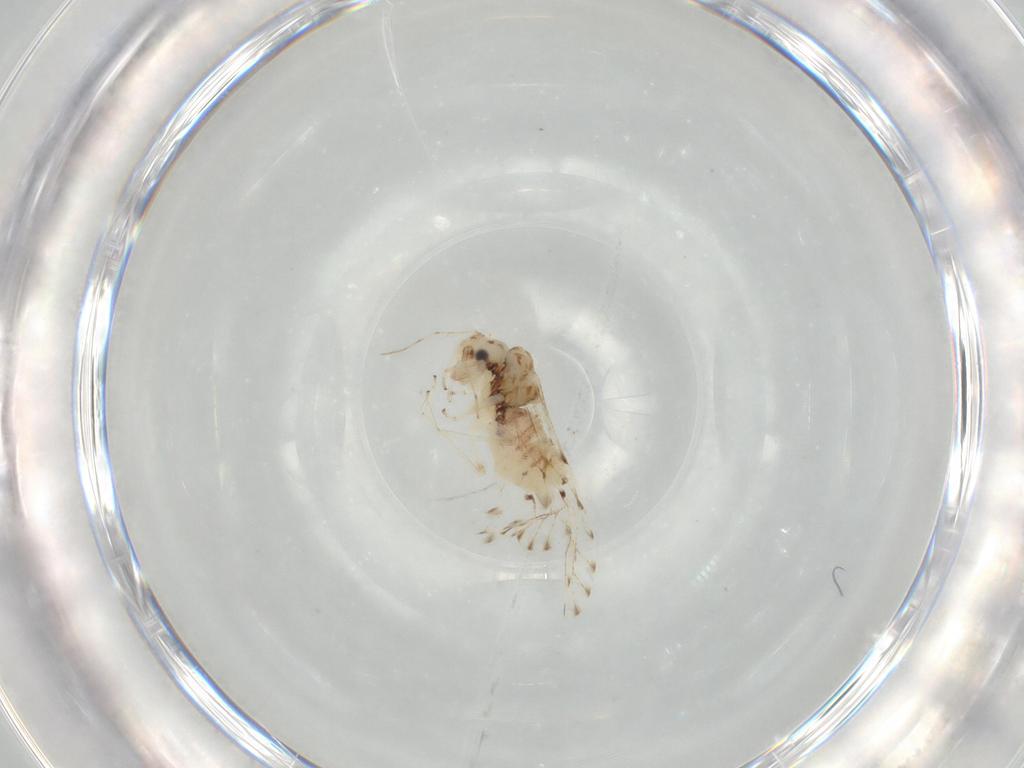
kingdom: Animalia
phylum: Arthropoda
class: Insecta
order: Psocodea
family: Ectopsocidae
